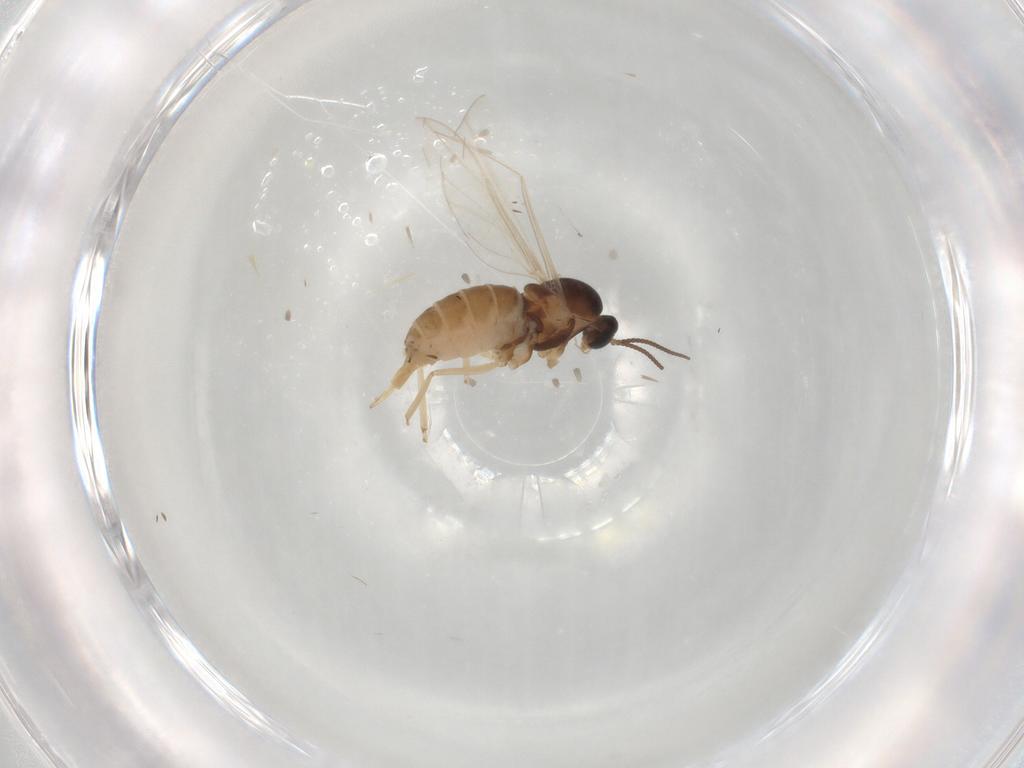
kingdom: Animalia
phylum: Arthropoda
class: Insecta
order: Diptera
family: Cecidomyiidae
